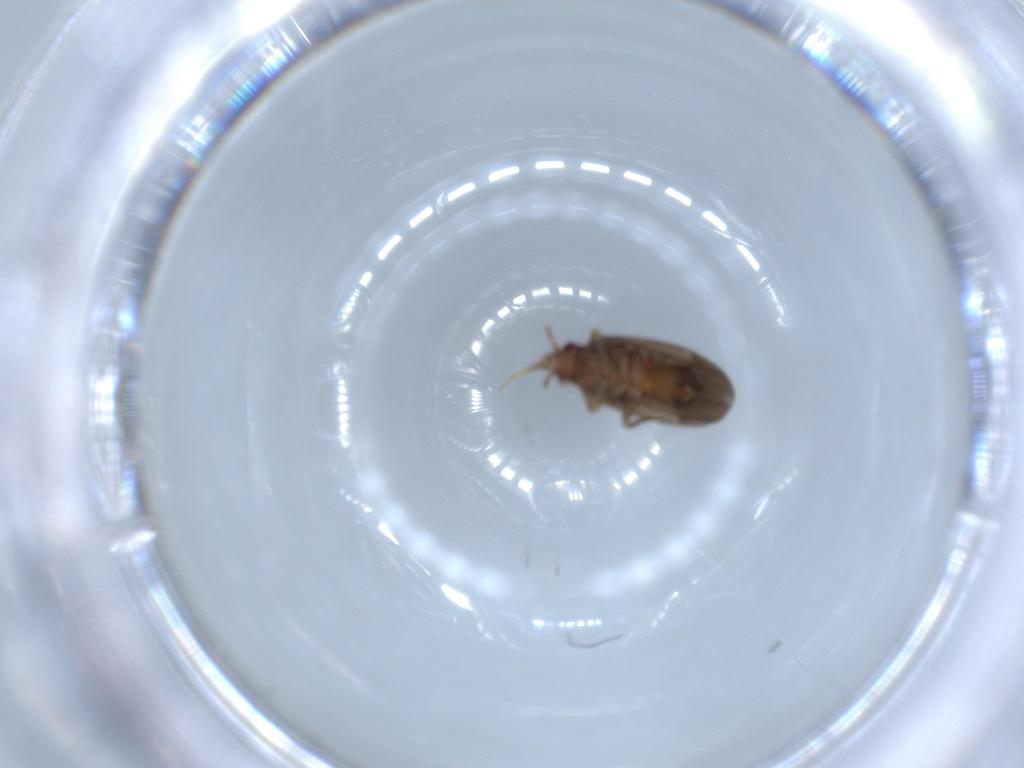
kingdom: Animalia
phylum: Arthropoda
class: Insecta
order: Hemiptera
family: Ceratocombidae
